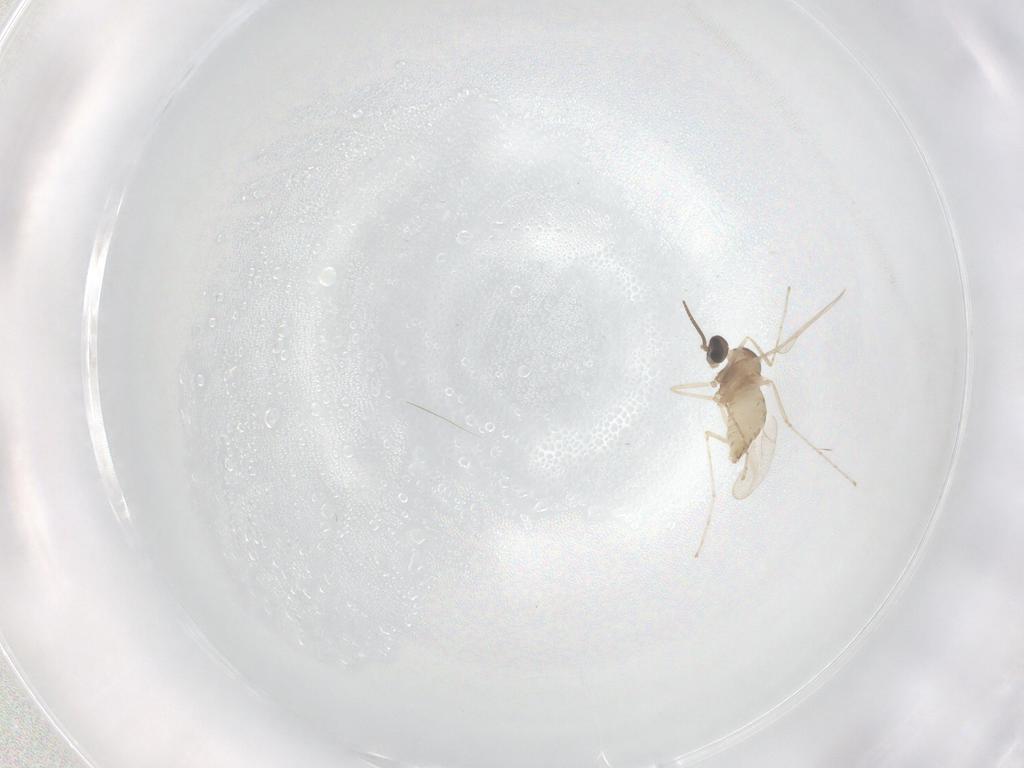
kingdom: Animalia
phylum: Arthropoda
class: Insecta
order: Diptera
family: Cecidomyiidae
